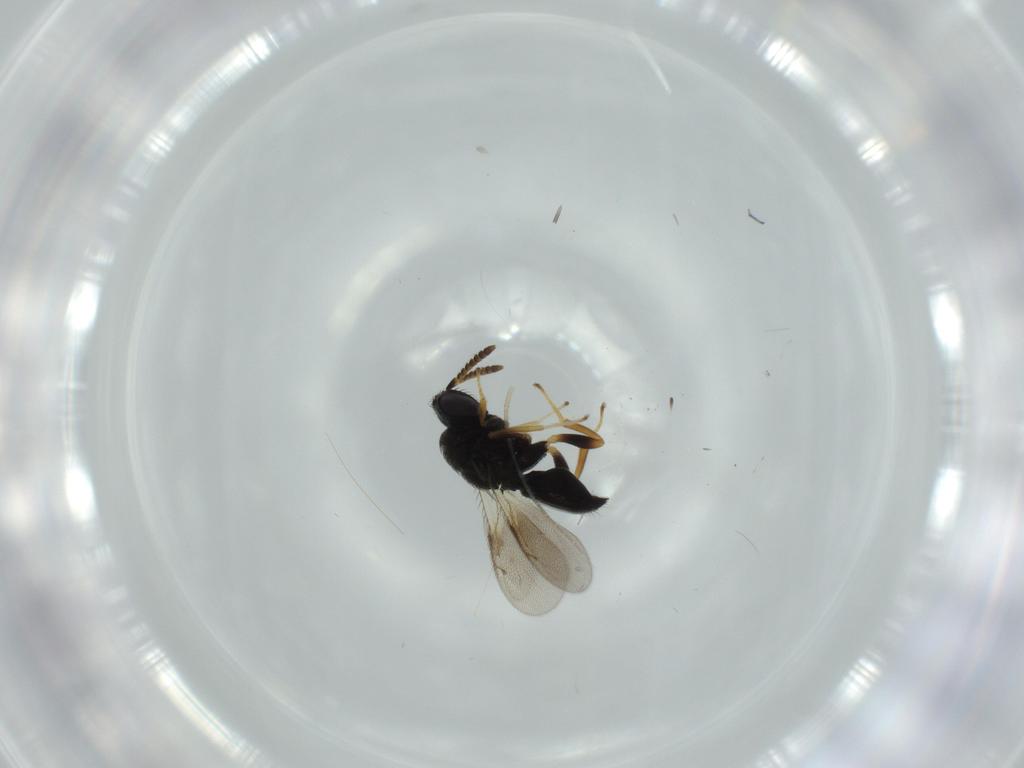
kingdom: Animalia
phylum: Arthropoda
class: Insecta
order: Hymenoptera
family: Pteromalidae
